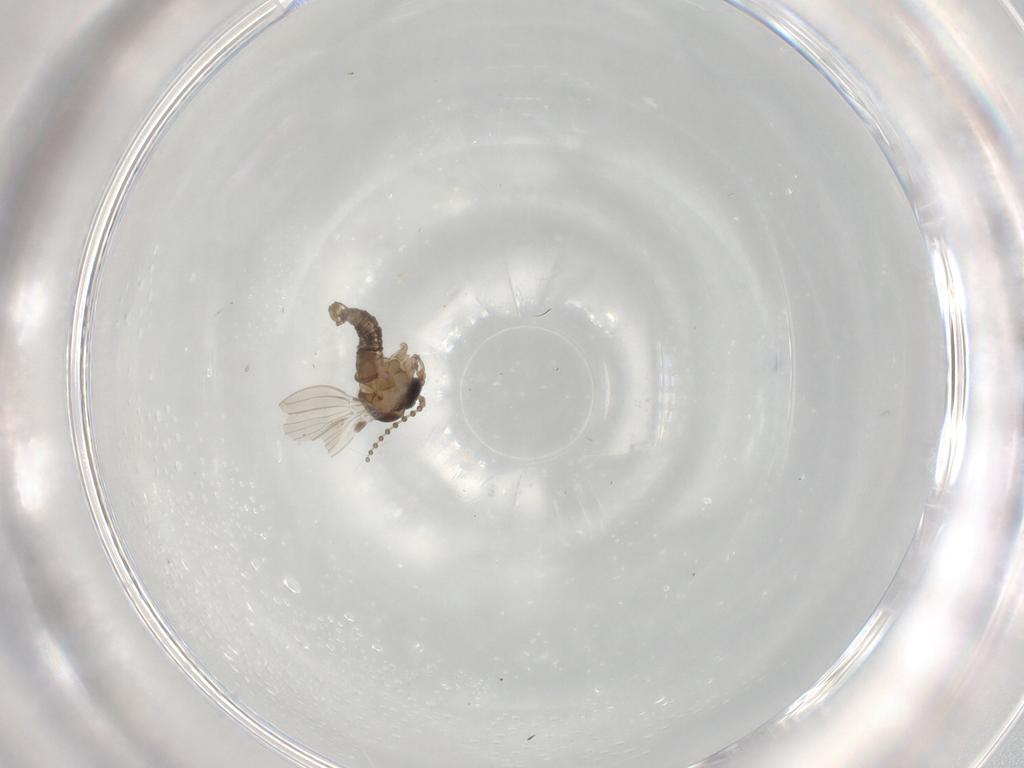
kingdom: Animalia
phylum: Arthropoda
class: Insecta
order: Diptera
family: Psychodidae
